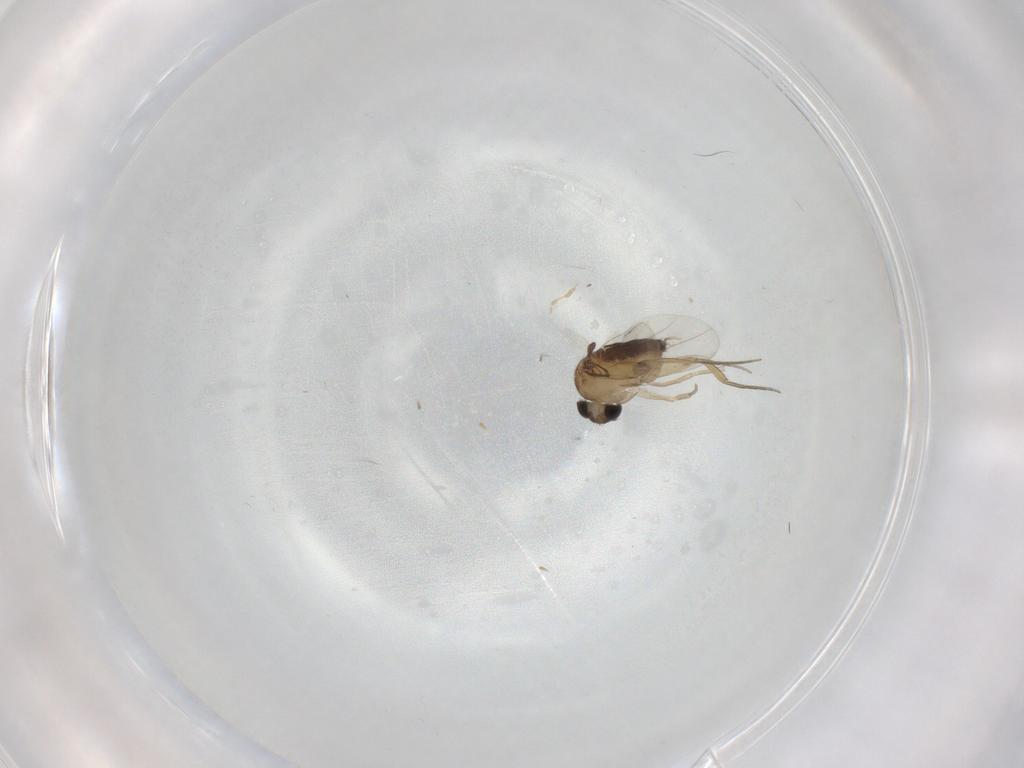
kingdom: Animalia
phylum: Arthropoda
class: Insecta
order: Diptera
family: Phoridae
